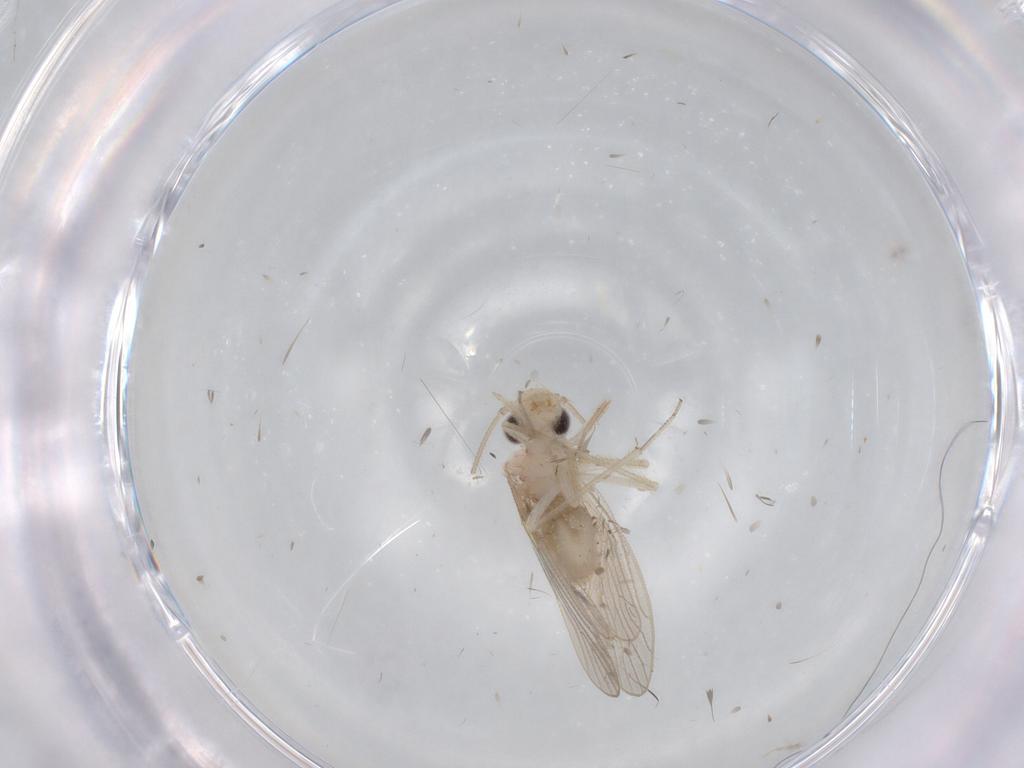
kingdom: Animalia
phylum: Arthropoda
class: Insecta
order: Psocodea
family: Cladiopsocidae
